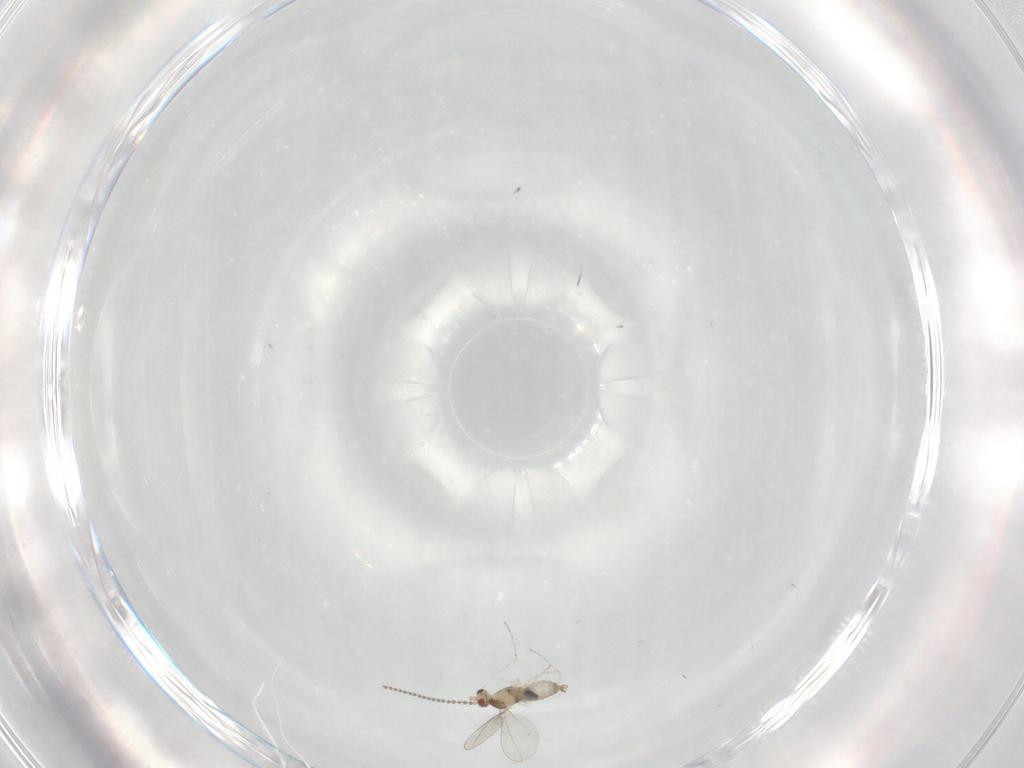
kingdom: Animalia
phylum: Arthropoda
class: Insecta
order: Diptera
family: Cecidomyiidae
